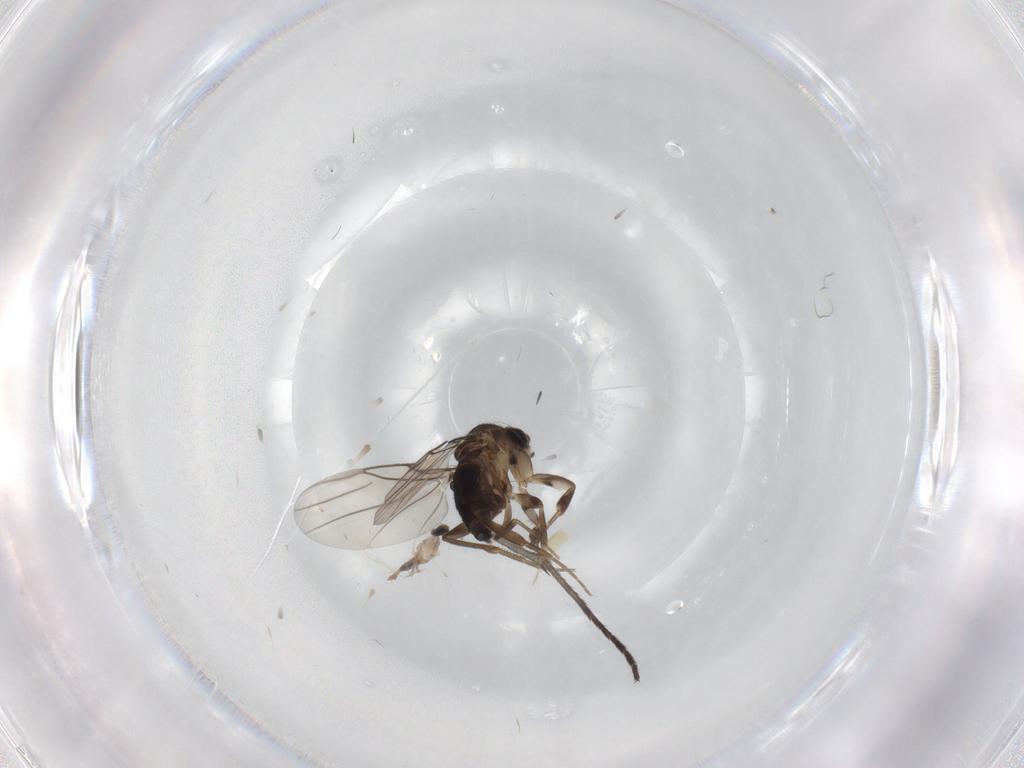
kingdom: Animalia
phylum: Arthropoda
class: Insecta
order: Diptera
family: Phoridae
